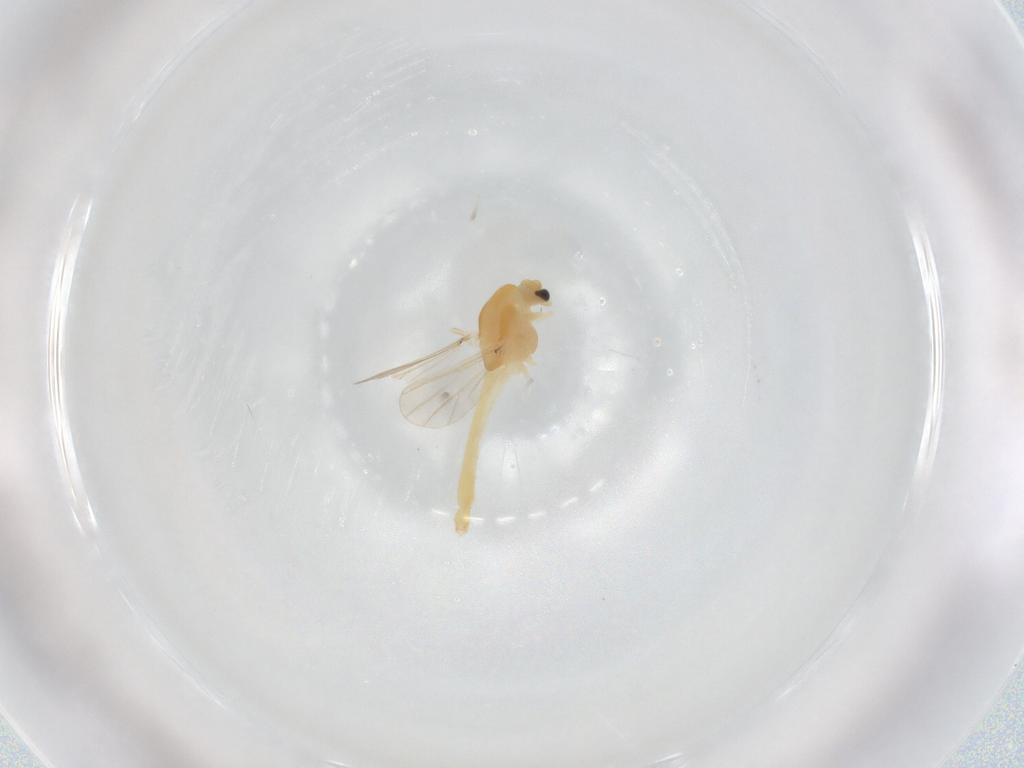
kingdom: Animalia
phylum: Arthropoda
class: Insecta
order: Diptera
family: Chironomidae
